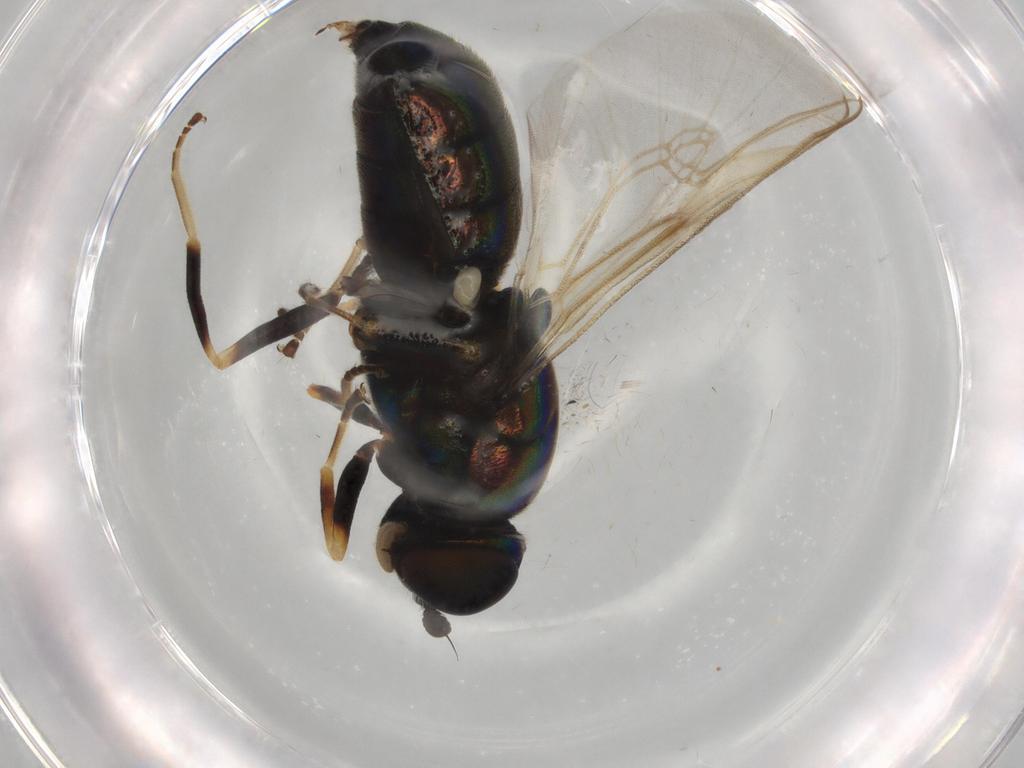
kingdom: Animalia
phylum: Arthropoda
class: Insecta
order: Diptera
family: Drosophilidae
